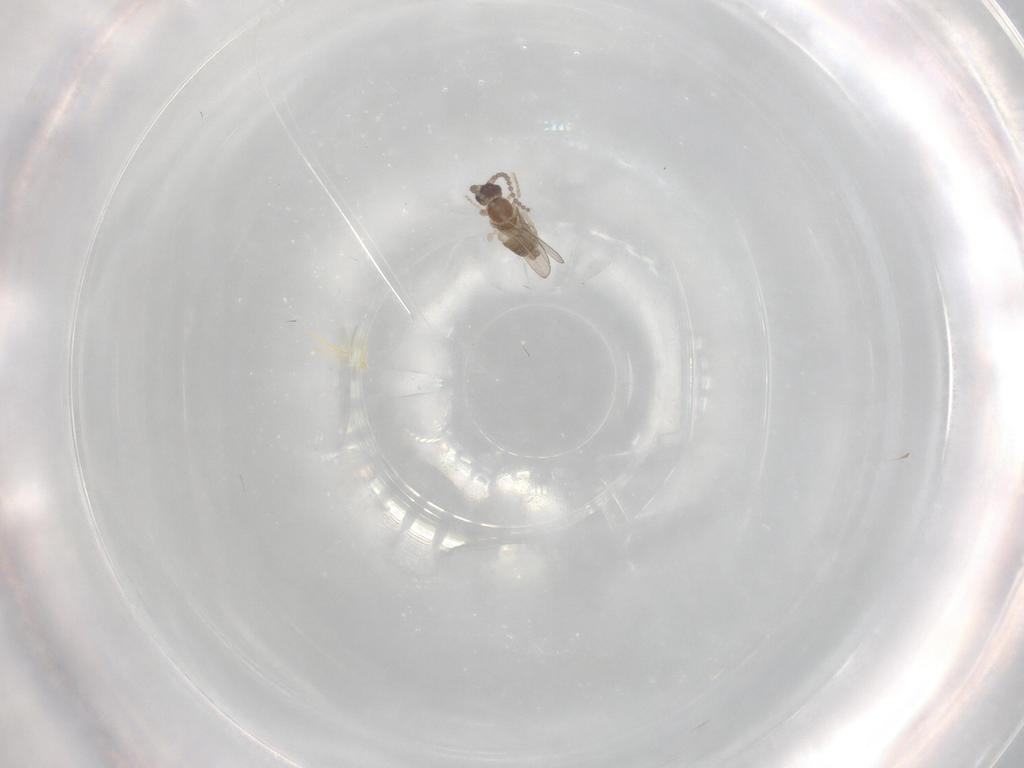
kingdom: Animalia
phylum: Arthropoda
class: Insecta
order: Diptera
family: Cecidomyiidae
